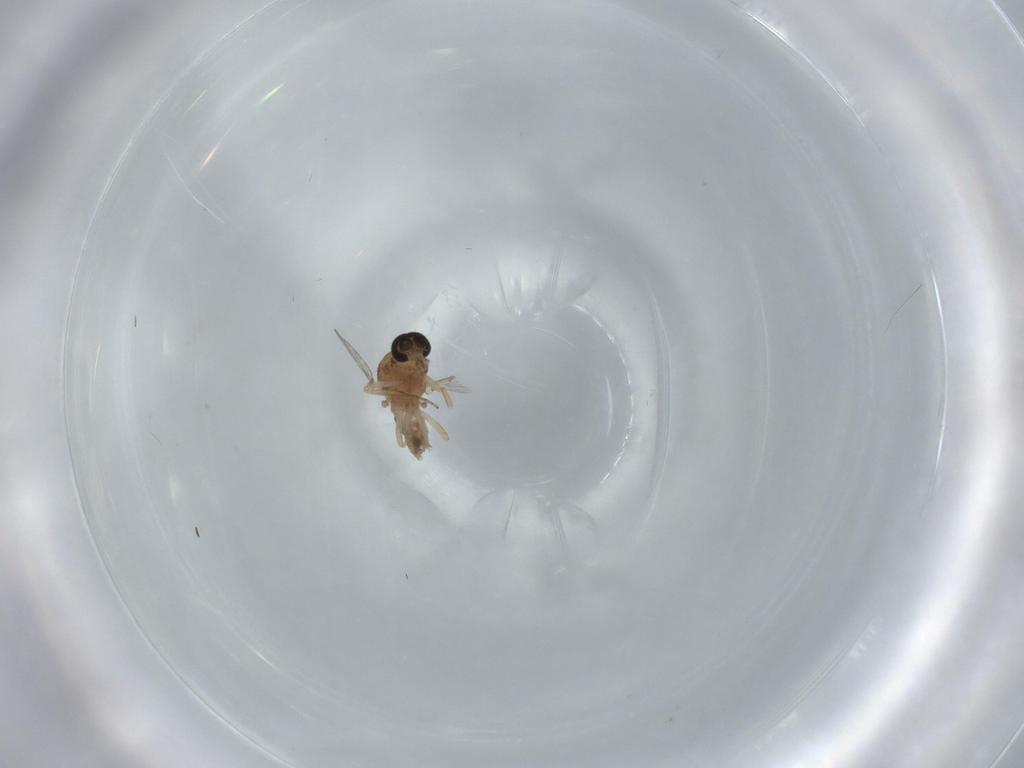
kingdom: Animalia
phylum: Arthropoda
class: Insecta
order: Diptera
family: Ceratopogonidae
